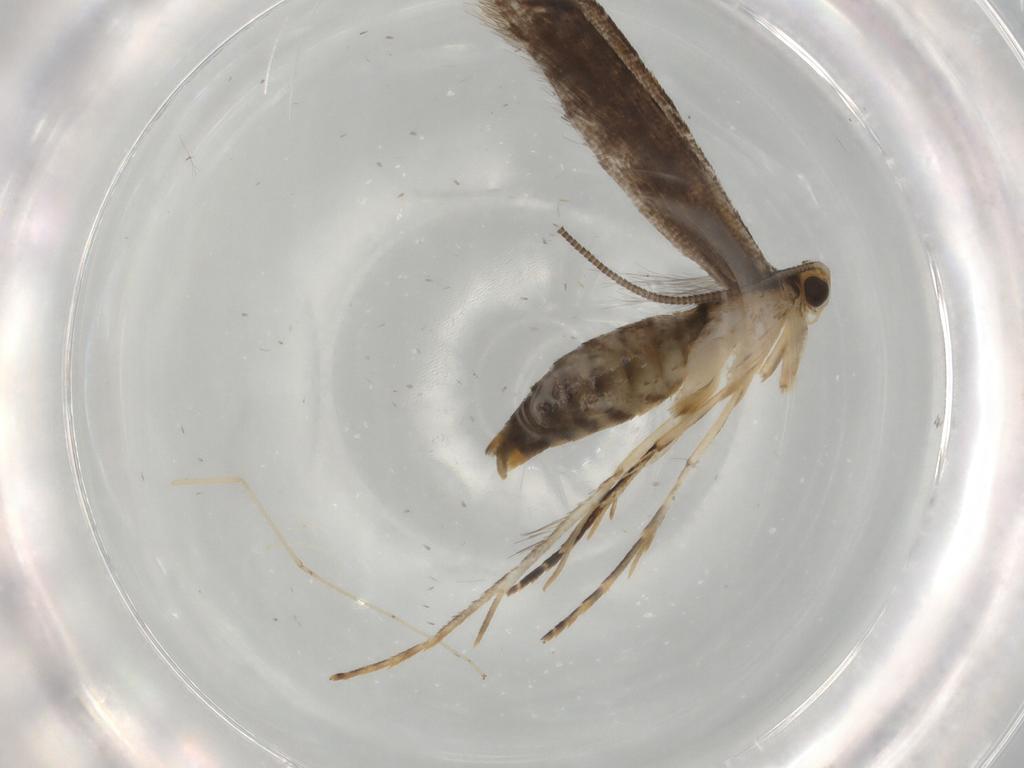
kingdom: Animalia
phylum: Arthropoda
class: Insecta
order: Lepidoptera
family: Tineidae
